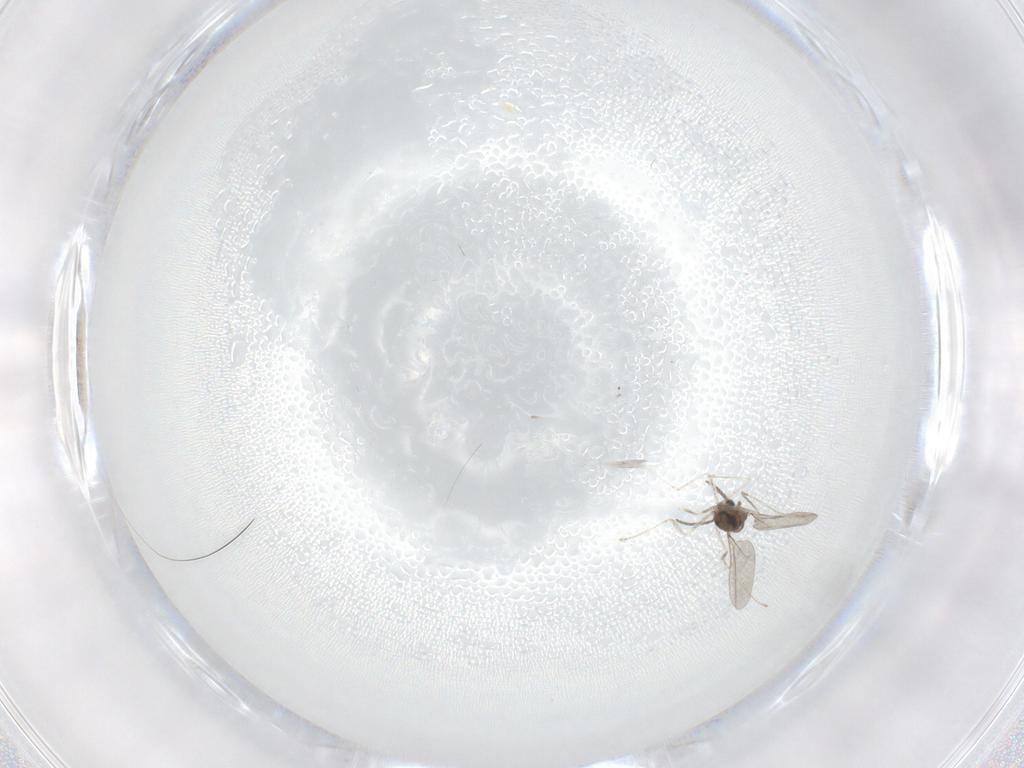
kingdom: Animalia
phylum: Arthropoda
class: Insecta
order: Diptera
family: Cecidomyiidae
